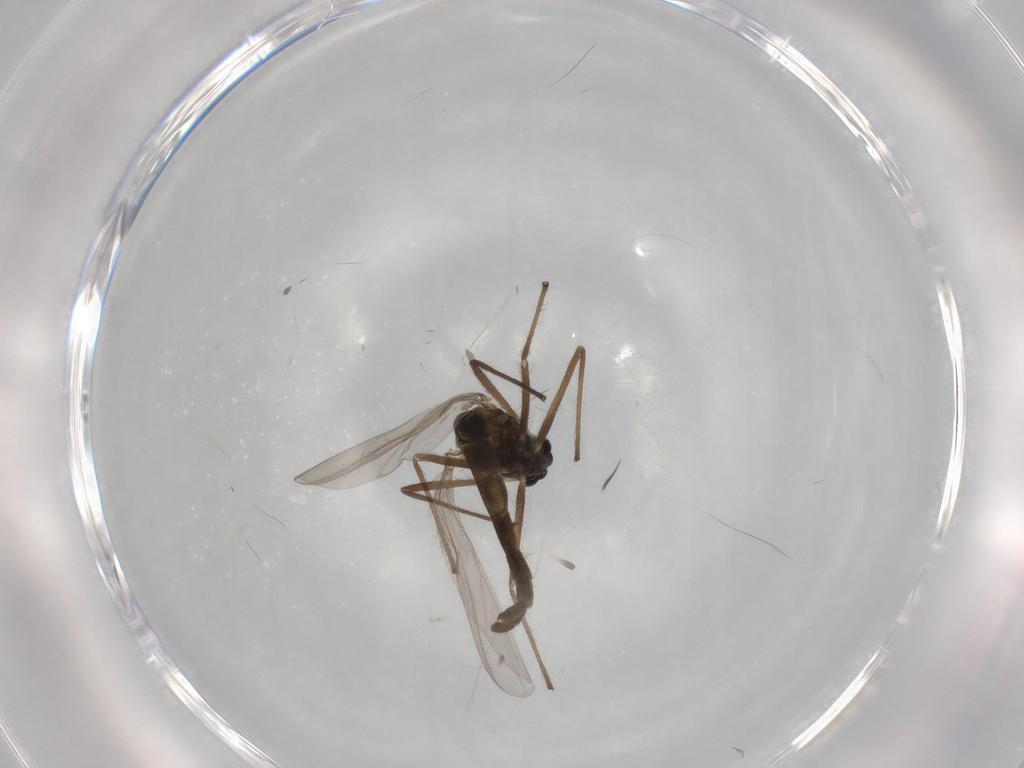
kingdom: Animalia
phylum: Arthropoda
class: Insecta
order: Diptera
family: Chironomidae
